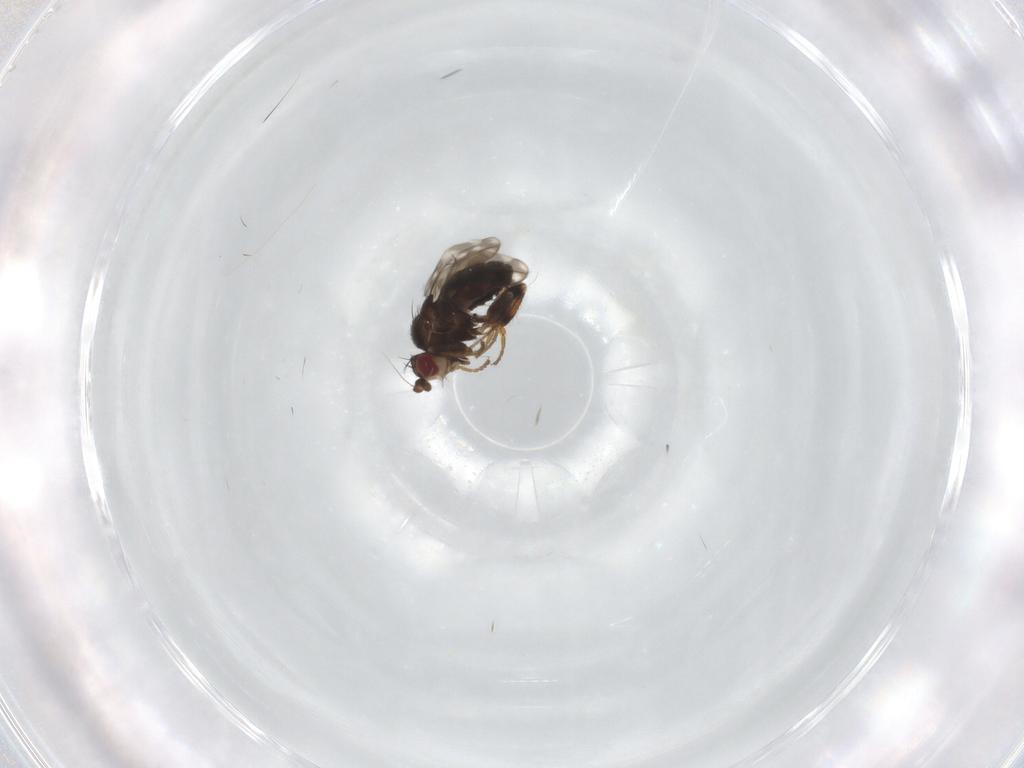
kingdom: Animalia
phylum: Arthropoda
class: Insecta
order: Diptera
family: Sphaeroceridae
